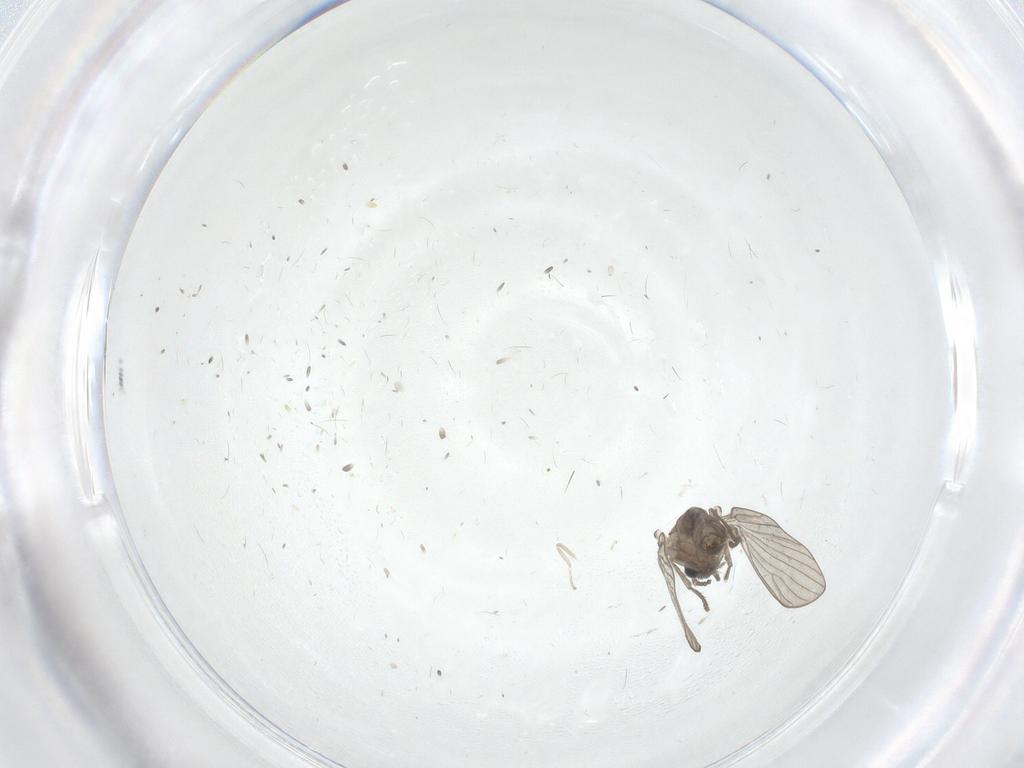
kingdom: Animalia
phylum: Arthropoda
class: Insecta
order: Diptera
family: Psychodidae
